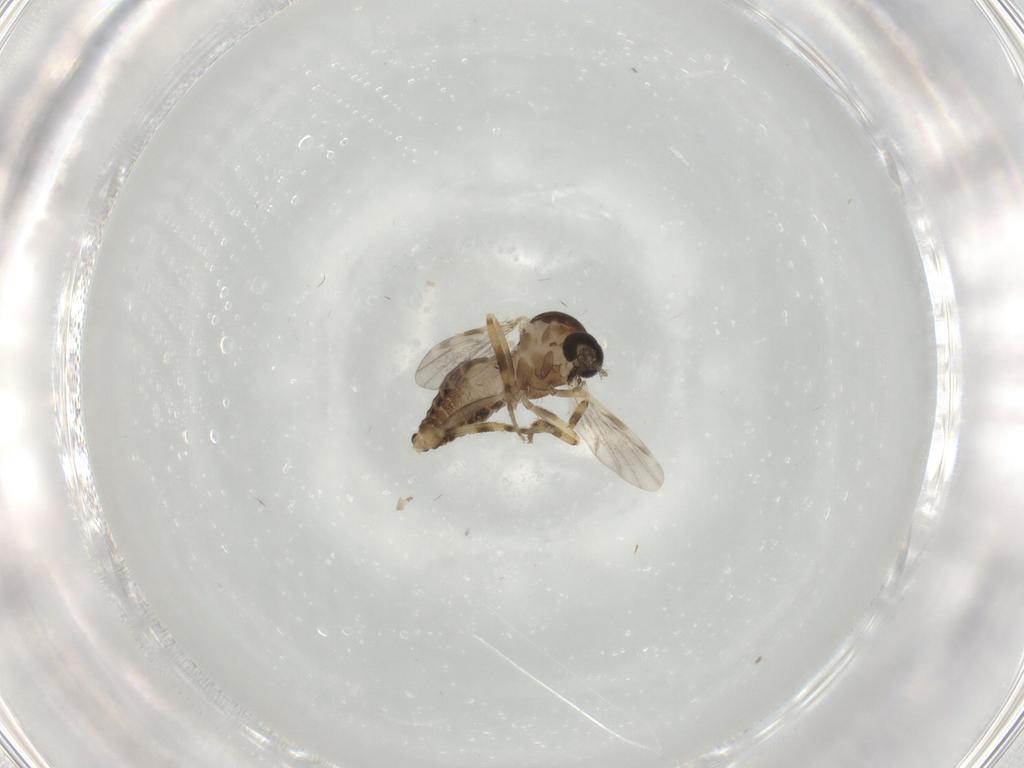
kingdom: Animalia
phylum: Arthropoda
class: Insecta
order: Diptera
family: Ceratopogonidae
